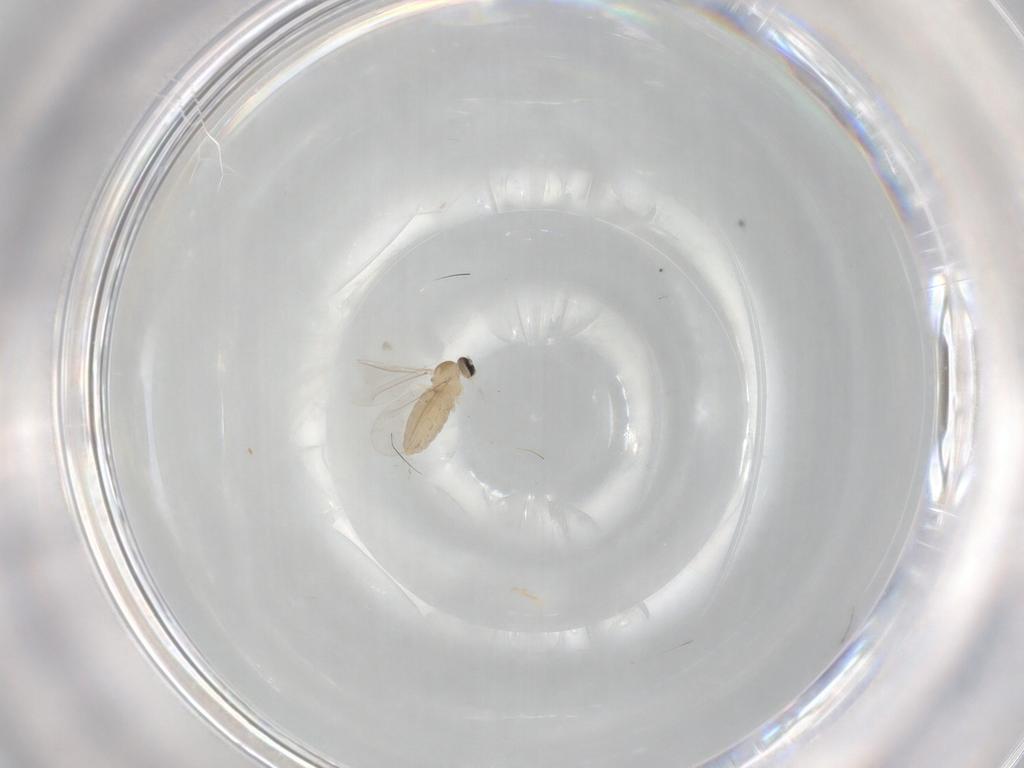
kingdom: Animalia
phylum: Arthropoda
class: Insecta
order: Diptera
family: Cecidomyiidae
